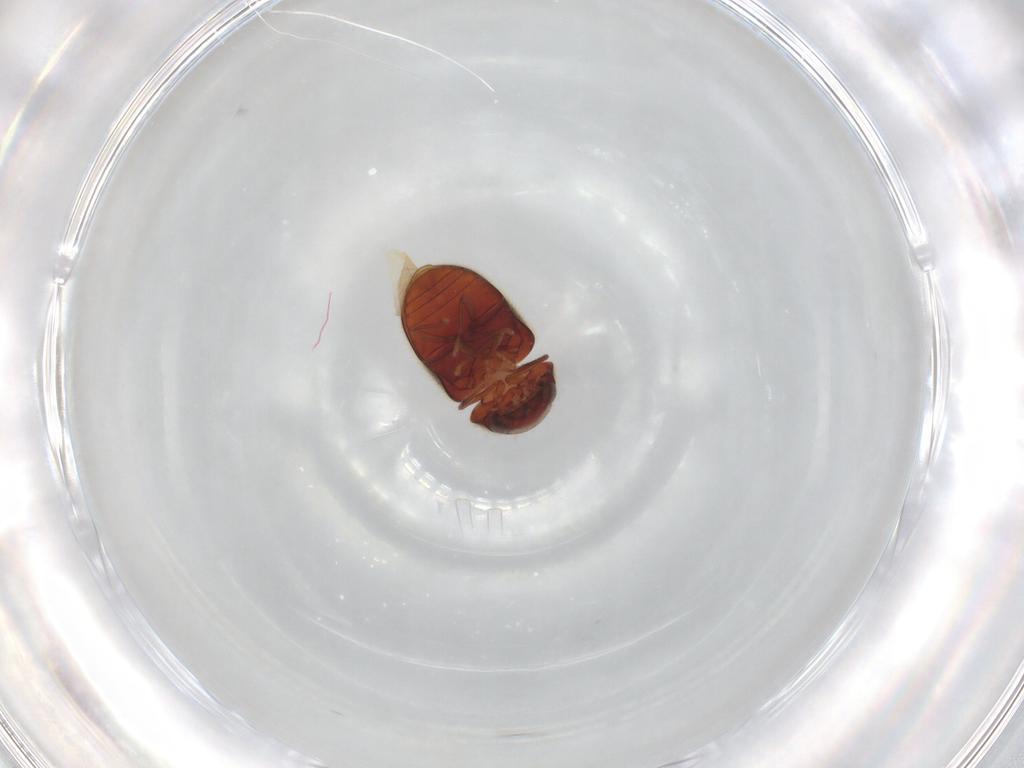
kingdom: Animalia
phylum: Arthropoda
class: Insecta
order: Coleoptera
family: Ptinidae
